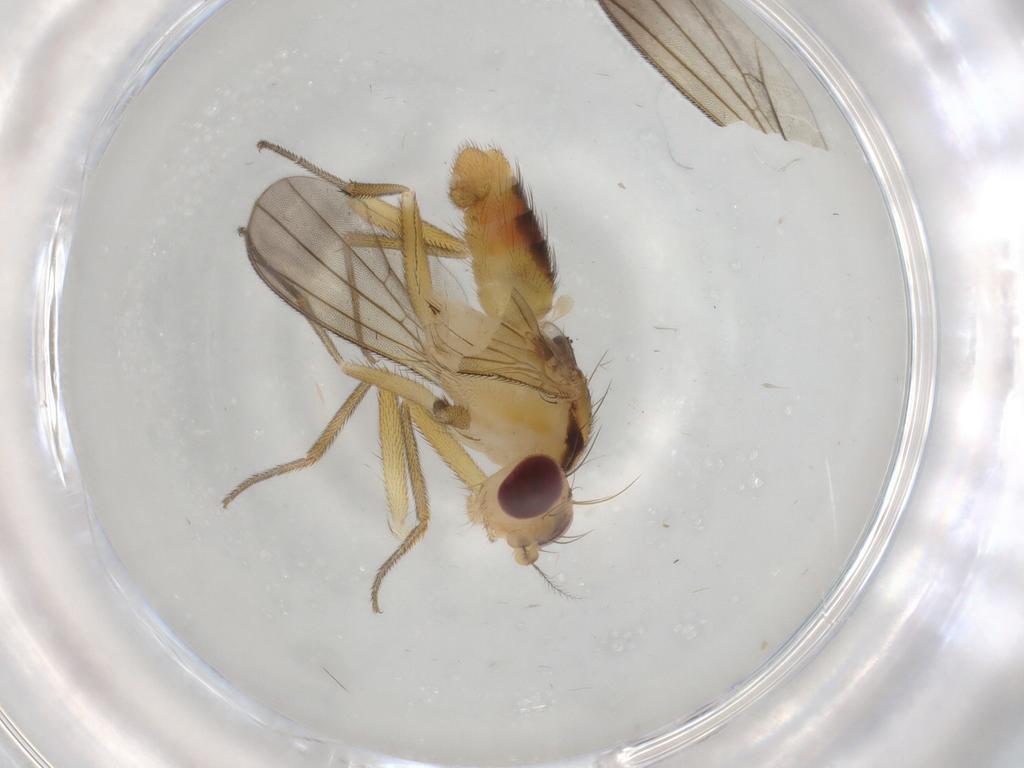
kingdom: Animalia
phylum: Arthropoda
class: Insecta
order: Diptera
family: Clusiidae
